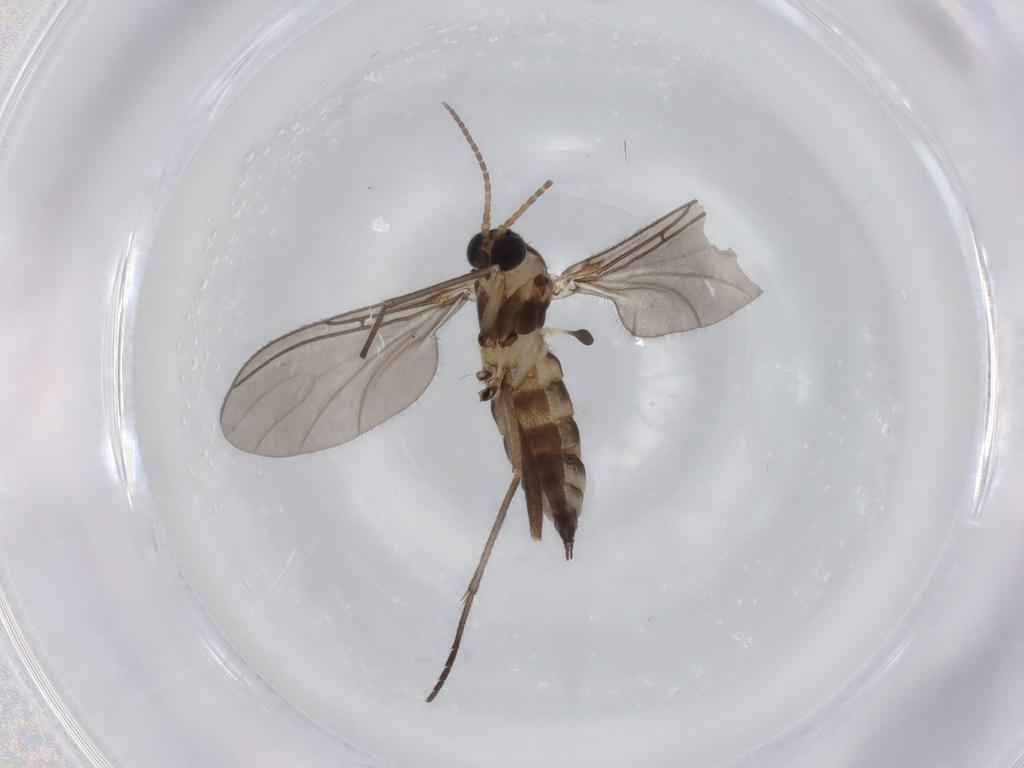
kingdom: Animalia
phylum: Arthropoda
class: Insecta
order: Diptera
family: Sciaridae
